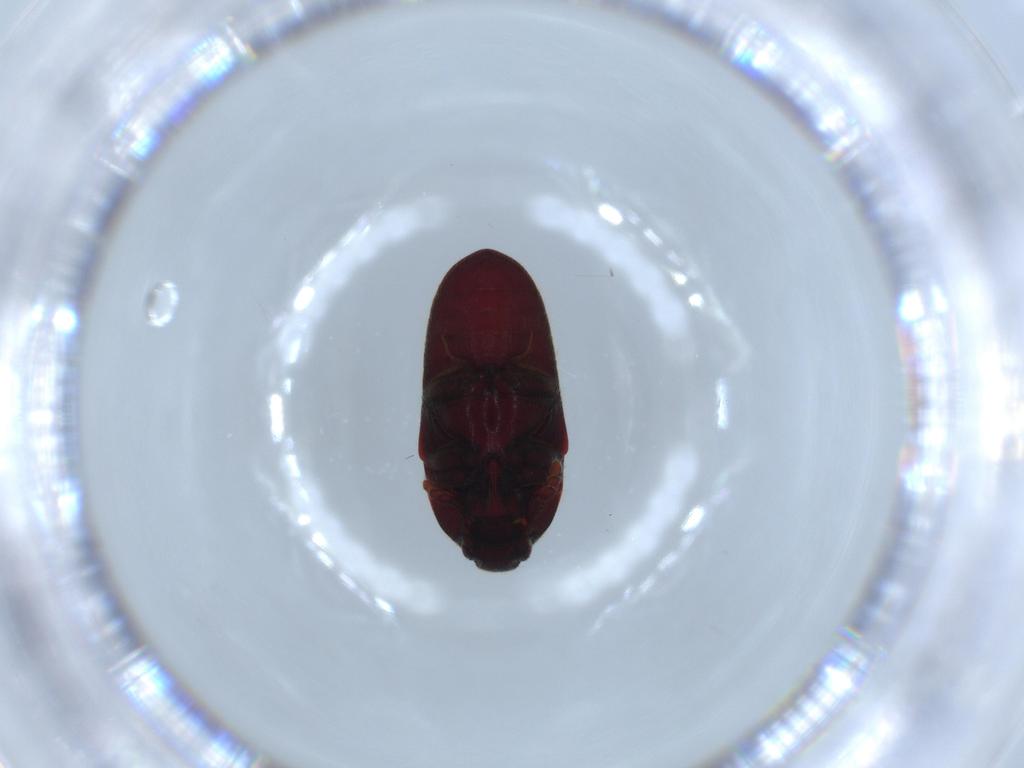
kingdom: Animalia
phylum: Arthropoda
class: Insecta
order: Coleoptera
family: Throscidae
